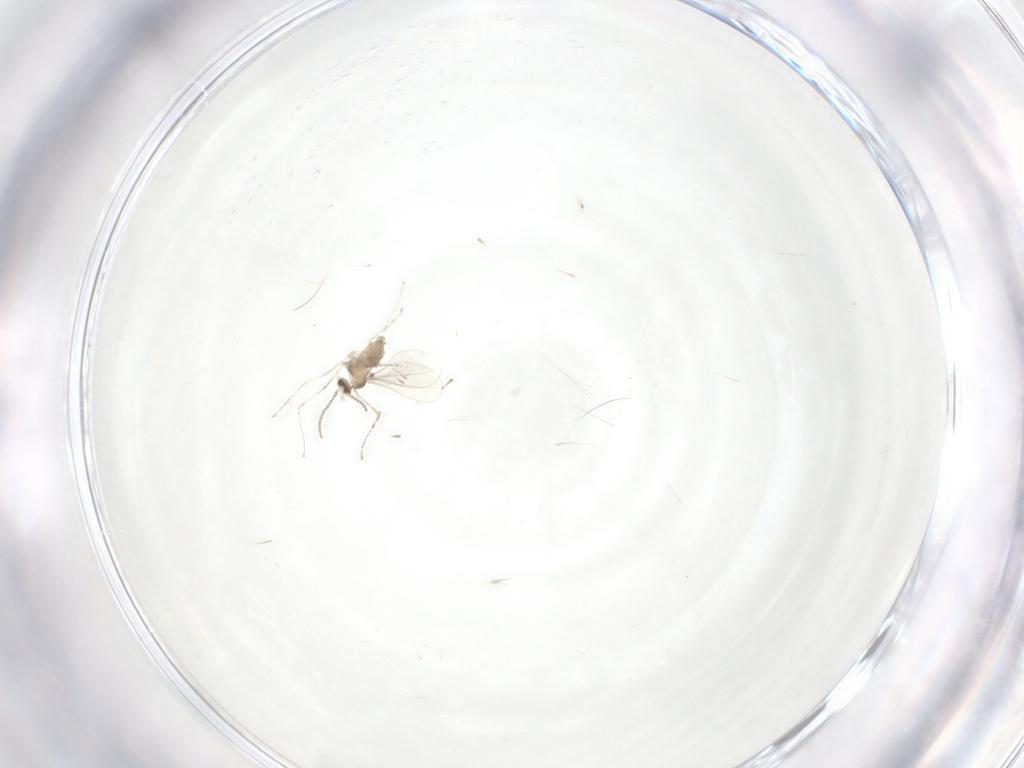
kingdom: Animalia
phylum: Arthropoda
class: Insecta
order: Diptera
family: Cecidomyiidae
